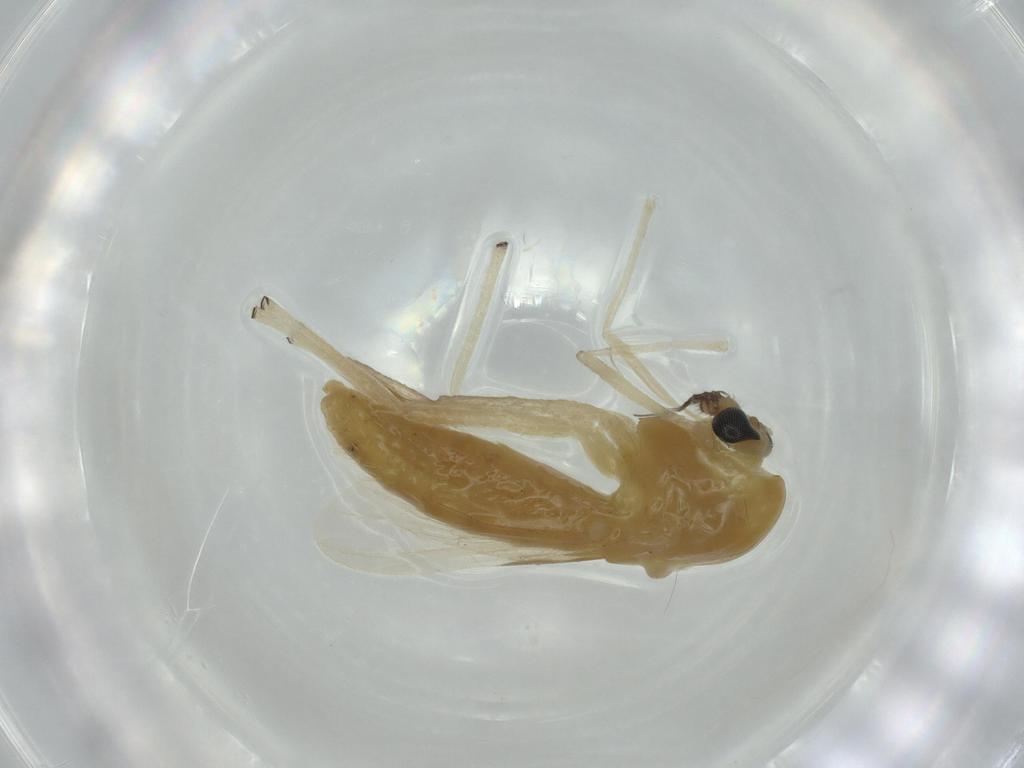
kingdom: Animalia
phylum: Arthropoda
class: Insecta
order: Diptera
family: Chironomidae
